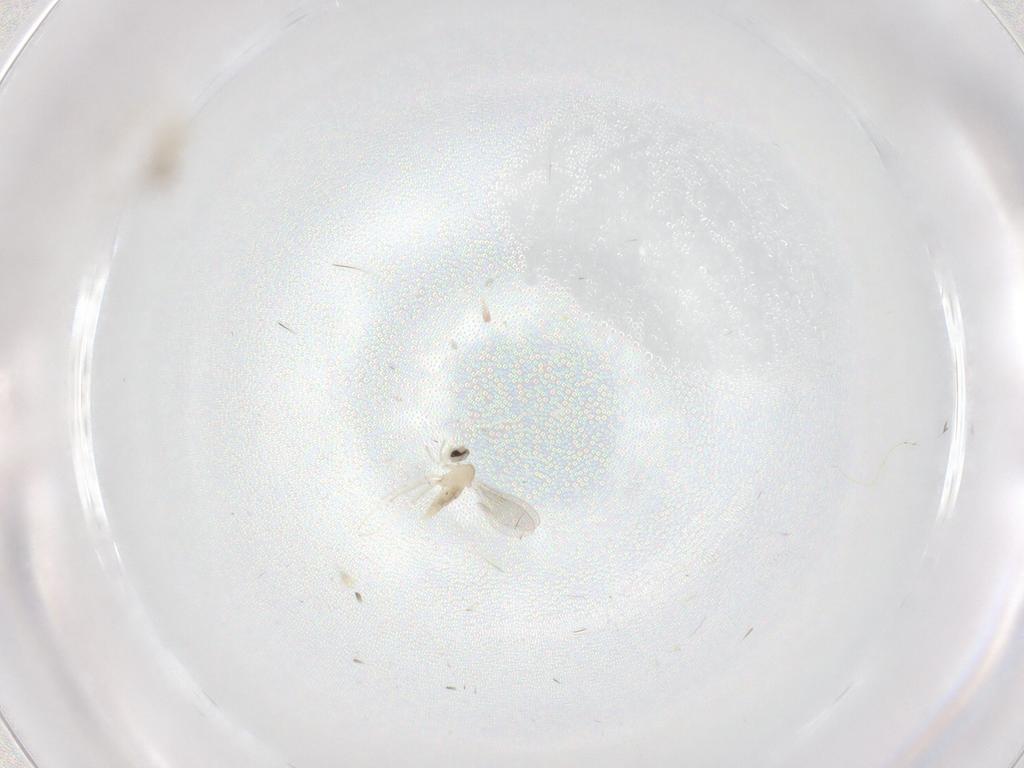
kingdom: Animalia
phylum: Arthropoda
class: Insecta
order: Diptera
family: Cecidomyiidae
